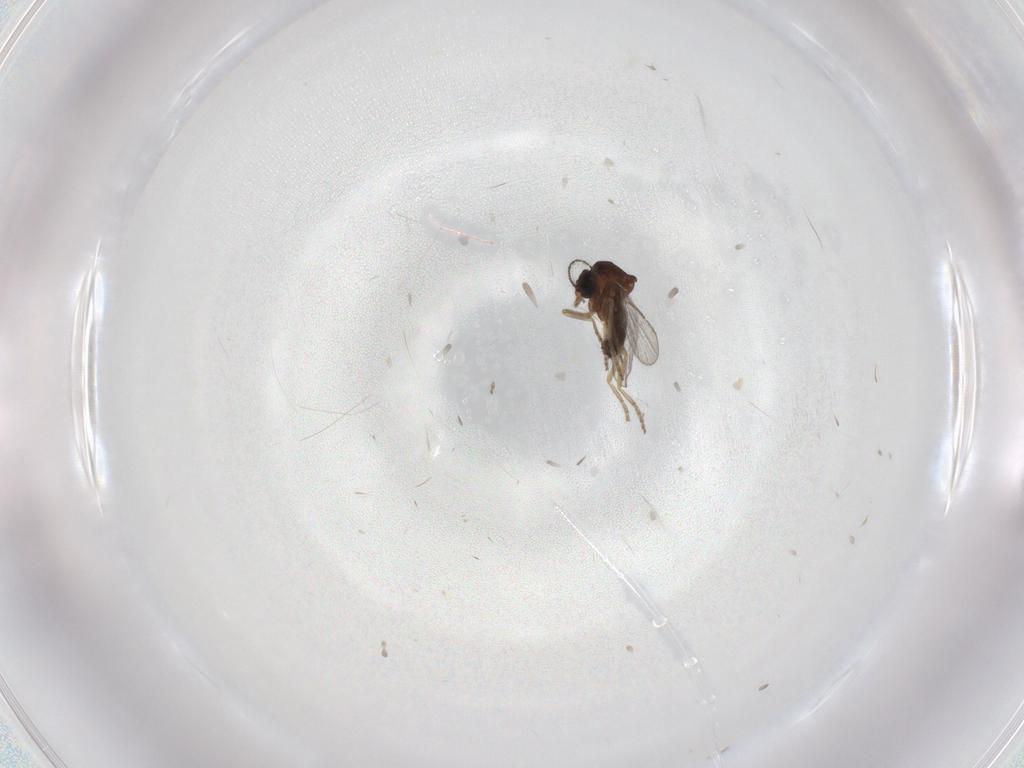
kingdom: Animalia
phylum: Arthropoda
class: Insecta
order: Diptera
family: Ceratopogonidae
